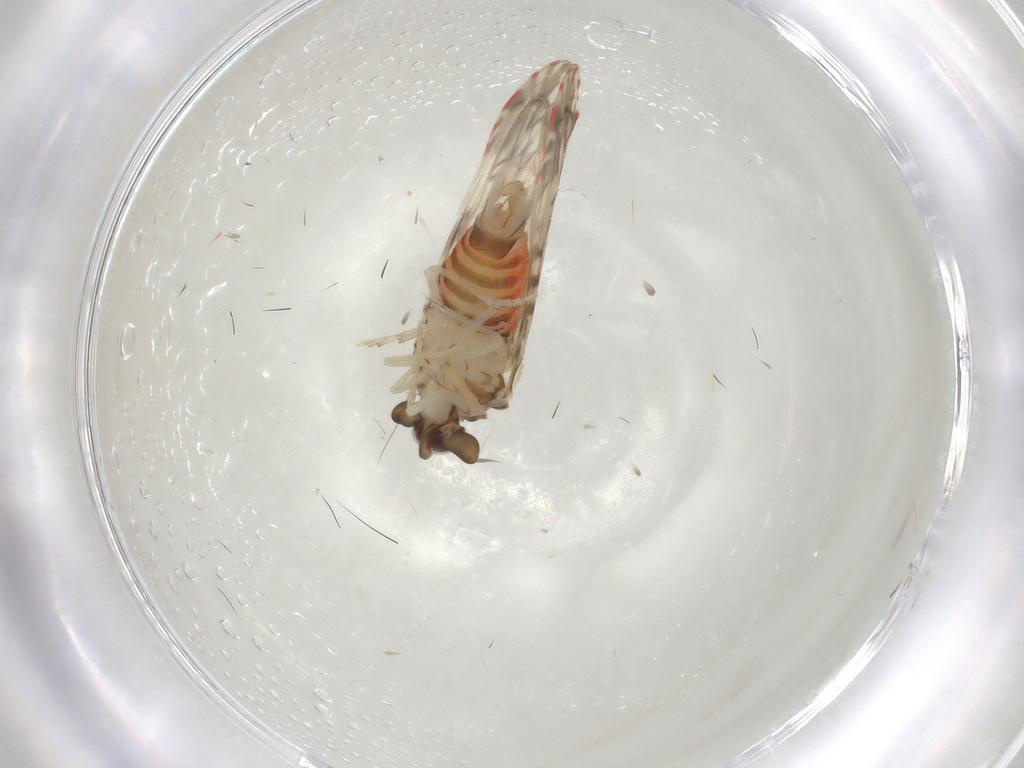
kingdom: Animalia
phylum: Arthropoda
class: Insecta
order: Hemiptera
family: Derbidae
